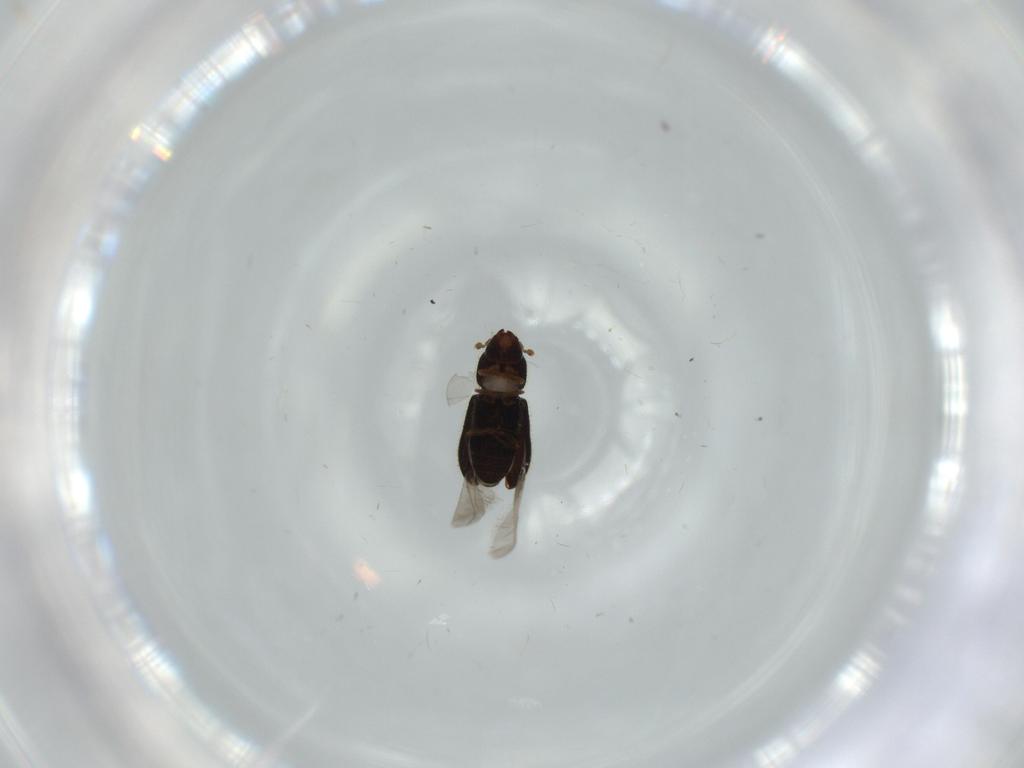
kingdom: Animalia
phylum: Arthropoda
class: Insecta
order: Coleoptera
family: Curculionidae
